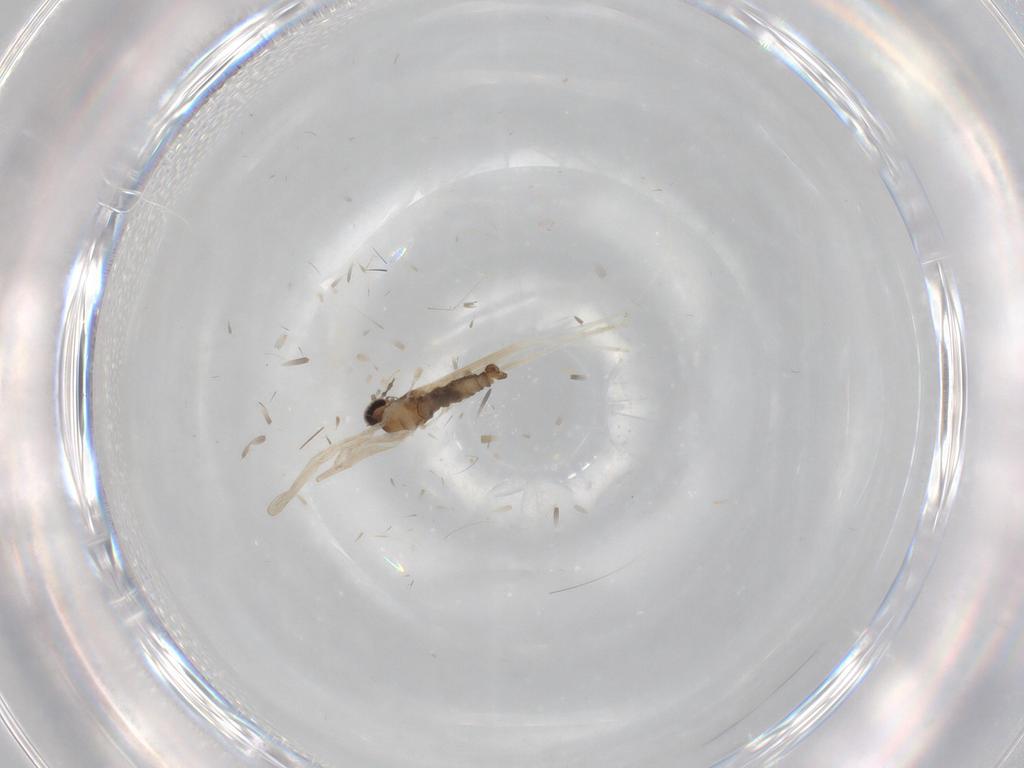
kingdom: Animalia
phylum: Arthropoda
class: Insecta
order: Diptera
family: Cecidomyiidae
